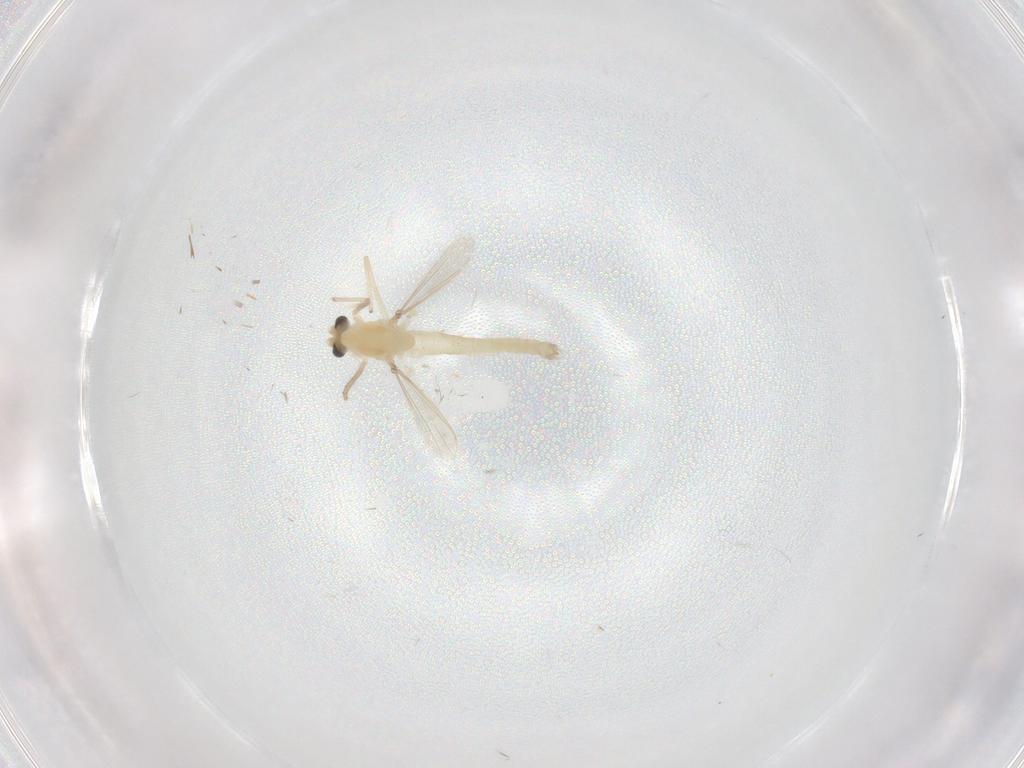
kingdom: Animalia
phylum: Arthropoda
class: Insecta
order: Diptera
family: Chironomidae
